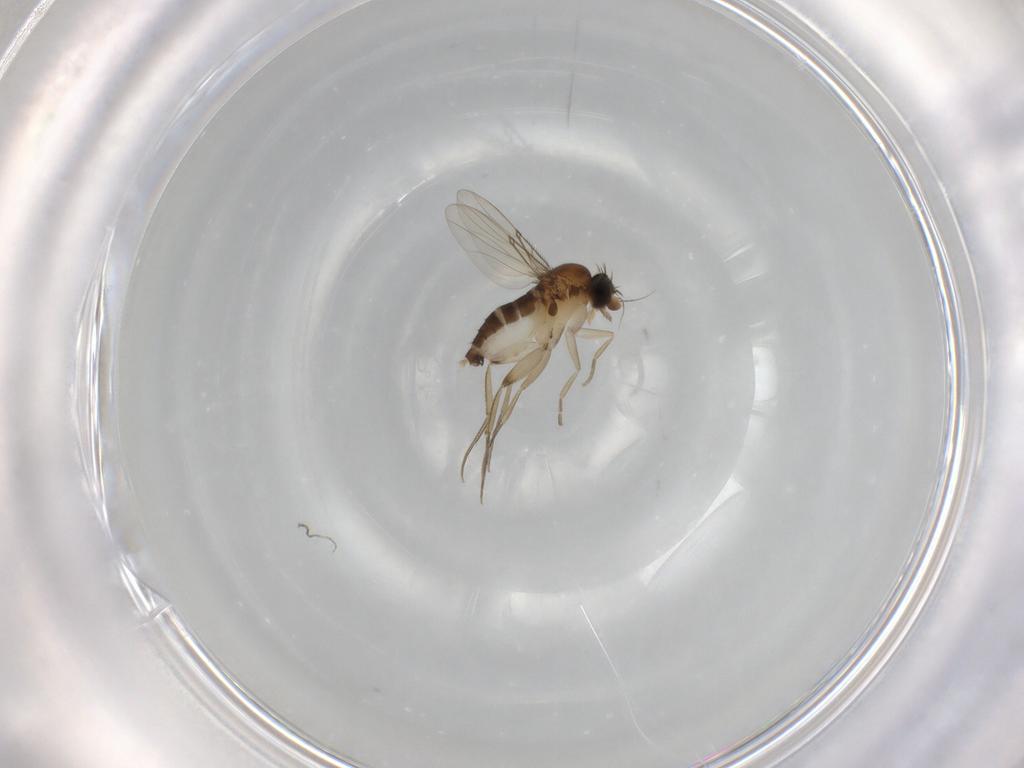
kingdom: Animalia
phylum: Arthropoda
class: Insecta
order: Diptera
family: Phoridae
